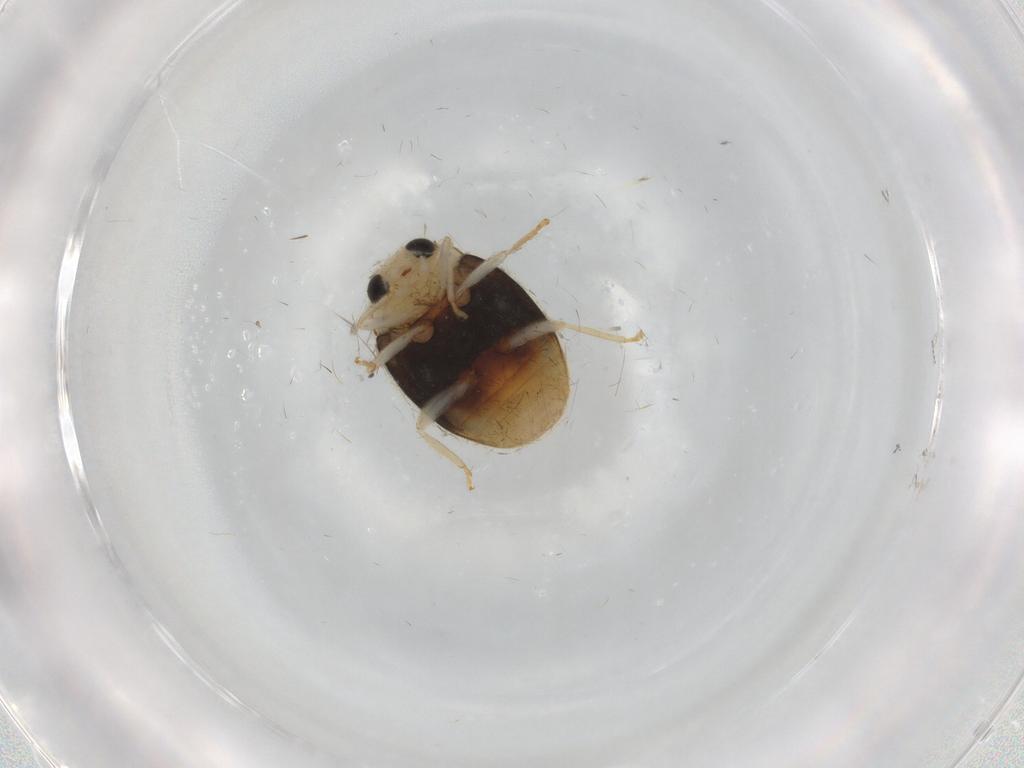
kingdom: Animalia
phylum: Arthropoda
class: Insecta
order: Coleoptera
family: Coccinellidae
